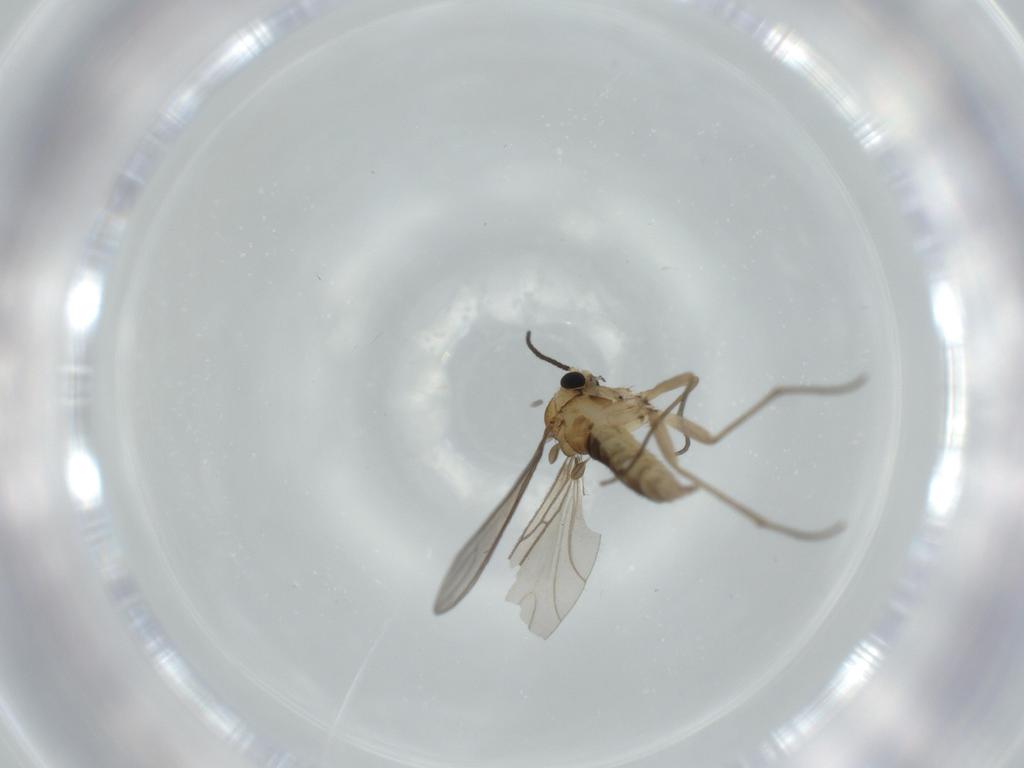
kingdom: Animalia
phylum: Arthropoda
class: Insecta
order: Diptera
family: Sciaridae
